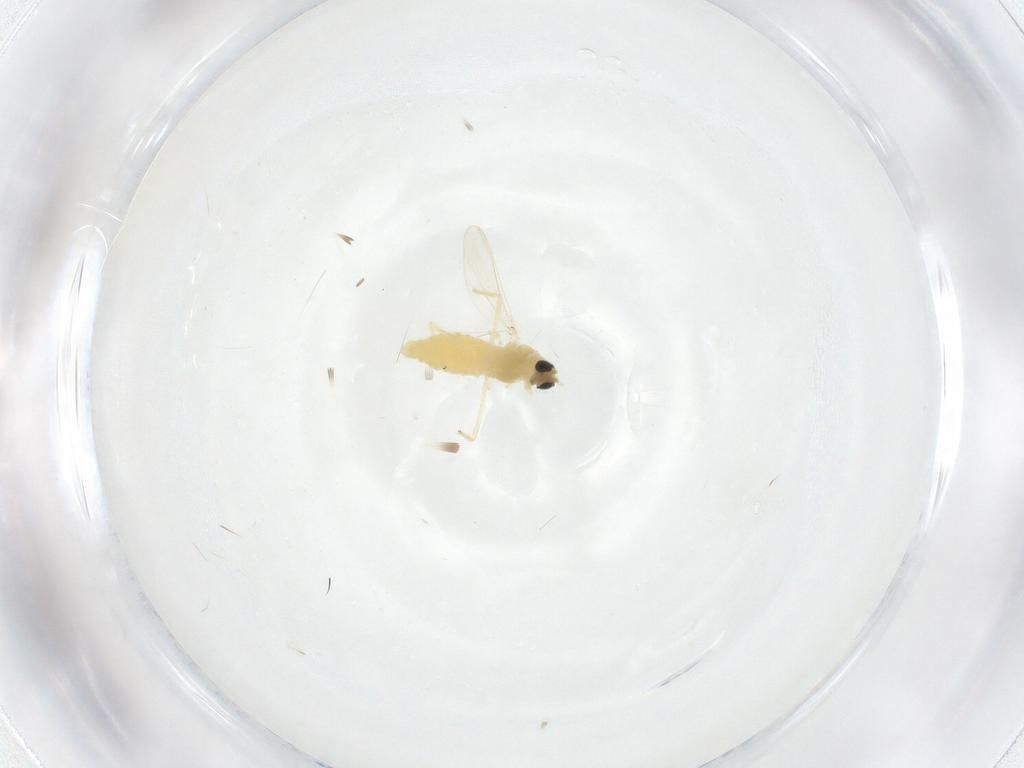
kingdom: Animalia
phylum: Arthropoda
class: Insecta
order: Diptera
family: Chironomidae
